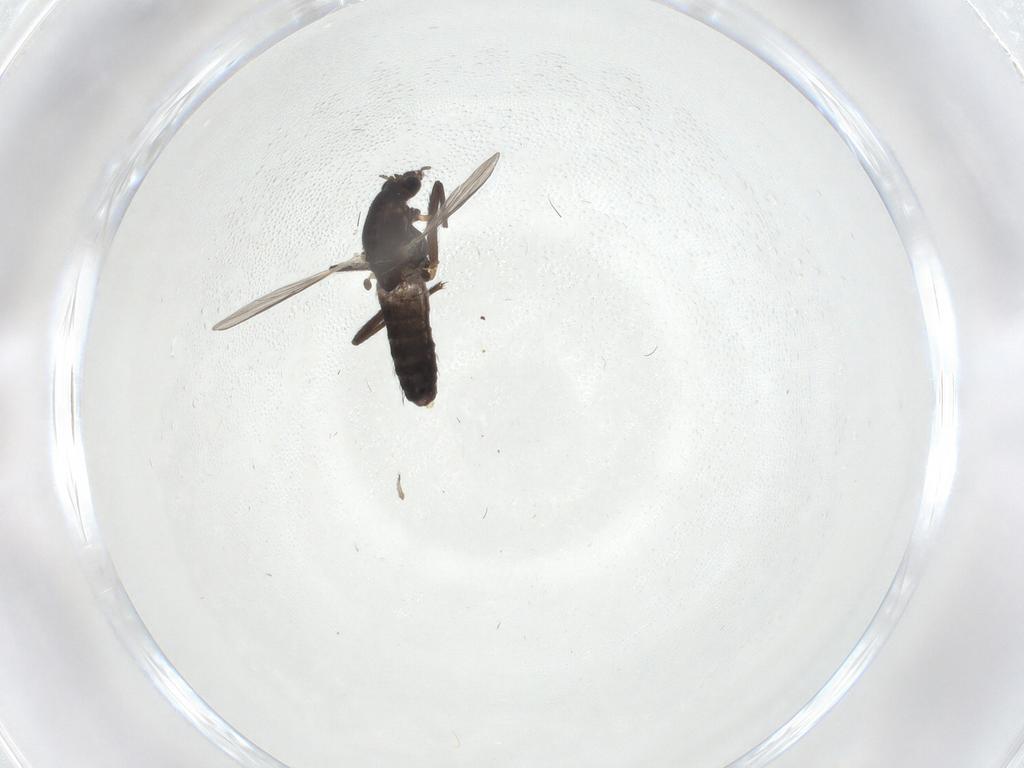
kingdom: Animalia
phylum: Arthropoda
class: Insecta
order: Diptera
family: Chironomidae
